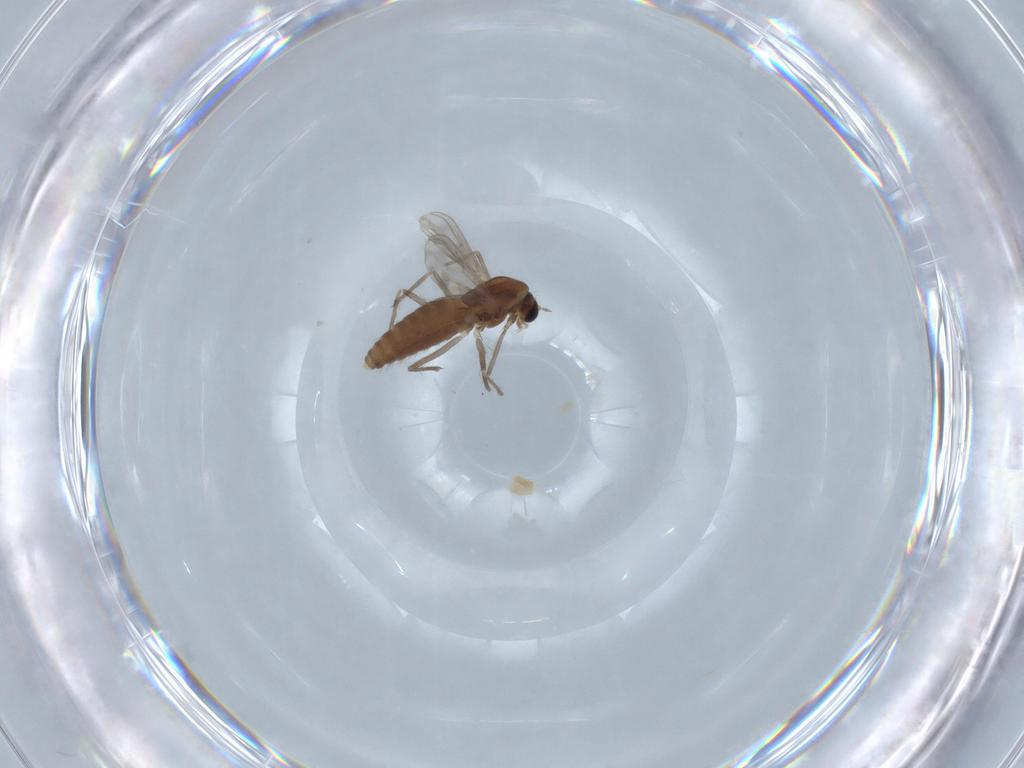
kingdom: Animalia
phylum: Arthropoda
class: Insecta
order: Diptera
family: Chironomidae
